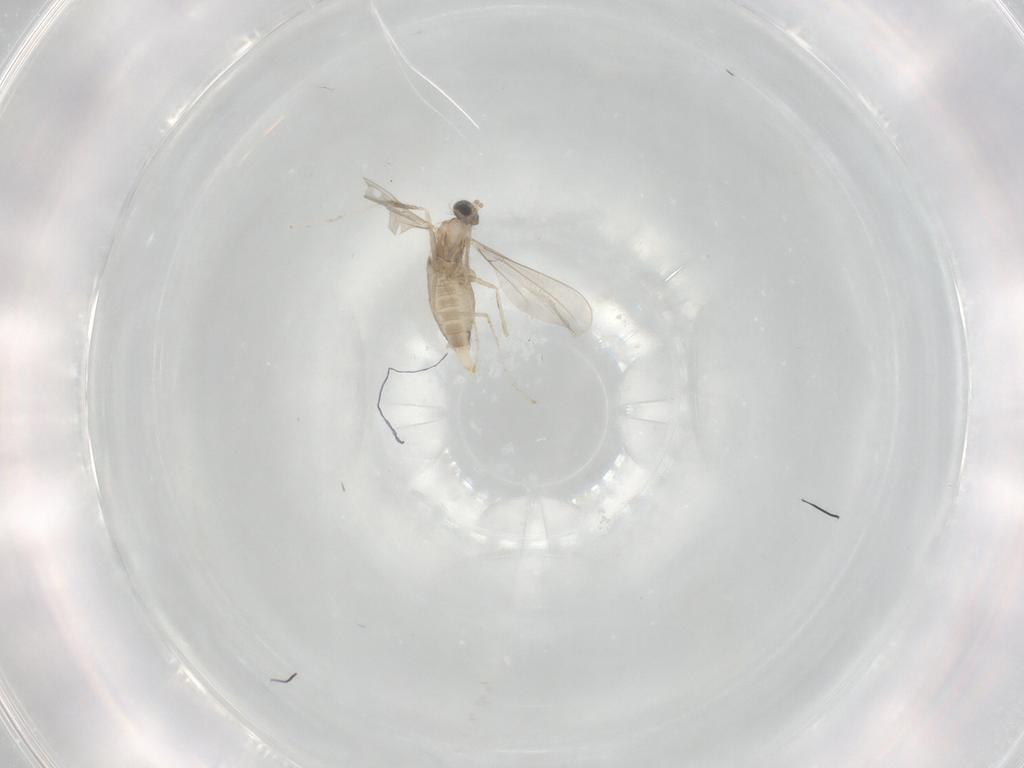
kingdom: Animalia
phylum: Arthropoda
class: Insecta
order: Diptera
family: Cecidomyiidae
